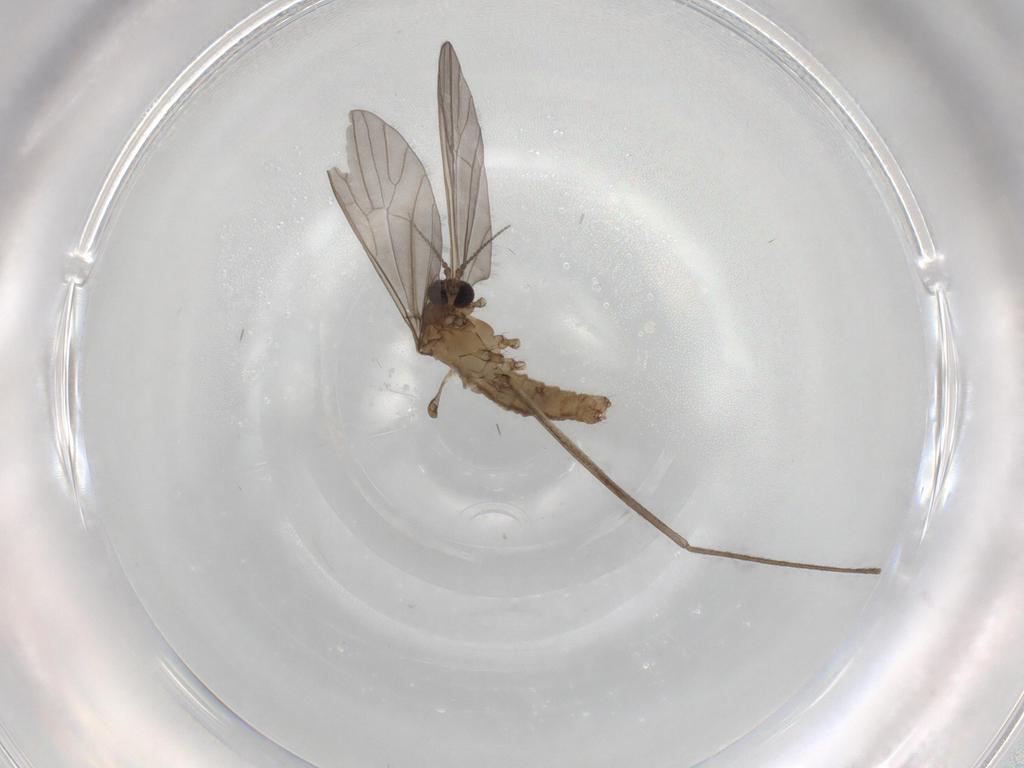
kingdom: Animalia
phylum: Arthropoda
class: Insecta
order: Diptera
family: Limoniidae
